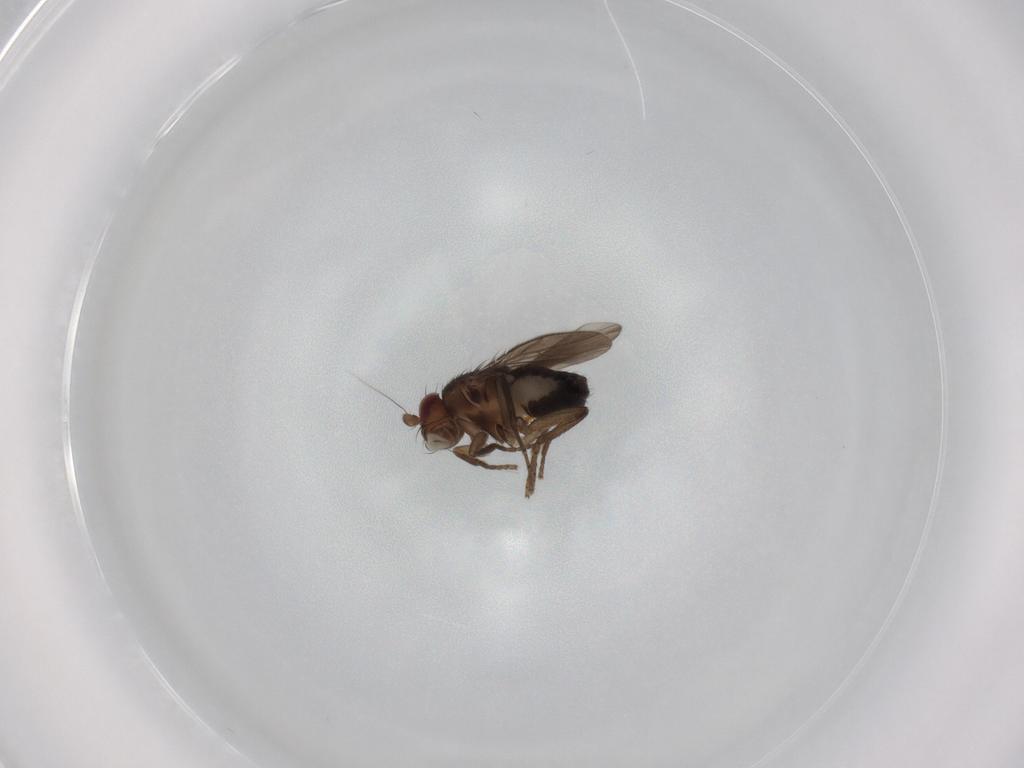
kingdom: Animalia
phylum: Arthropoda
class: Insecta
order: Diptera
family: Sphaeroceridae
